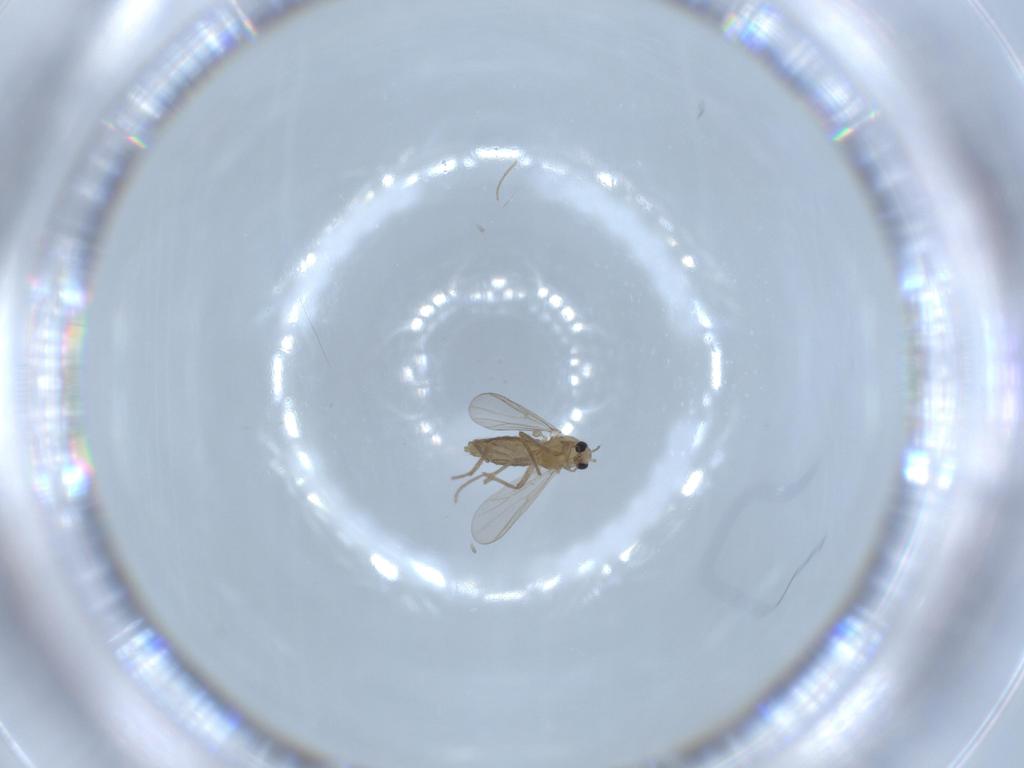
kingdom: Animalia
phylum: Arthropoda
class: Insecta
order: Diptera
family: Chironomidae
